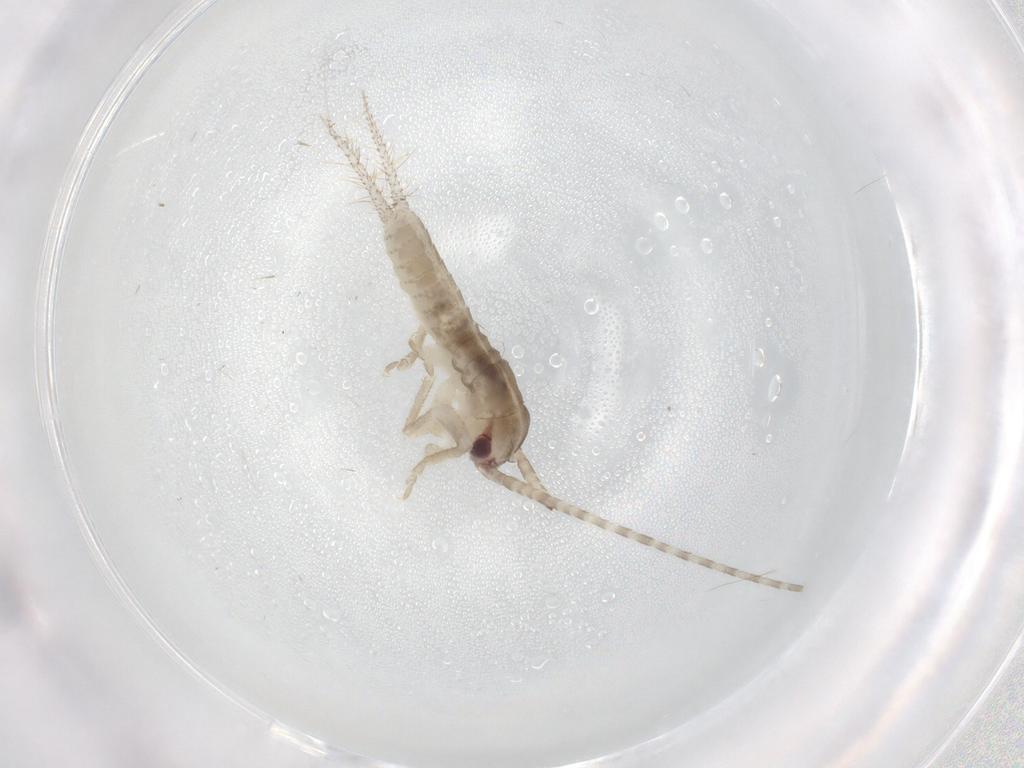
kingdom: Animalia
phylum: Arthropoda
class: Insecta
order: Orthoptera
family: Gryllidae
